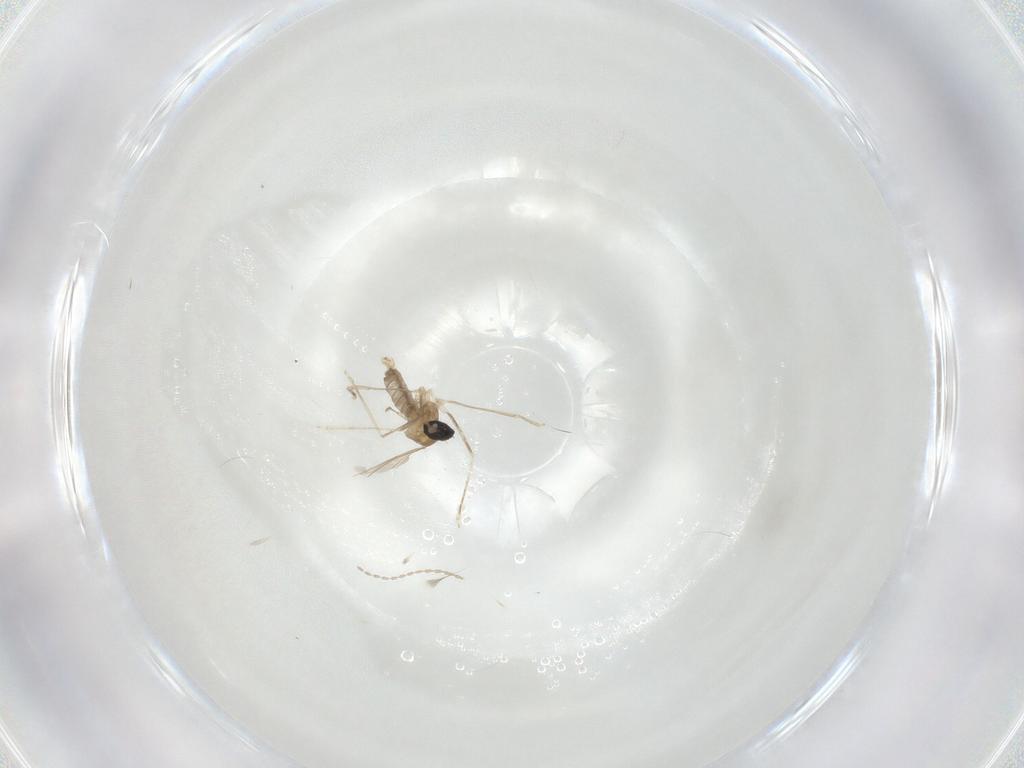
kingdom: Animalia
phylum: Arthropoda
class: Insecta
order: Diptera
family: Cecidomyiidae
